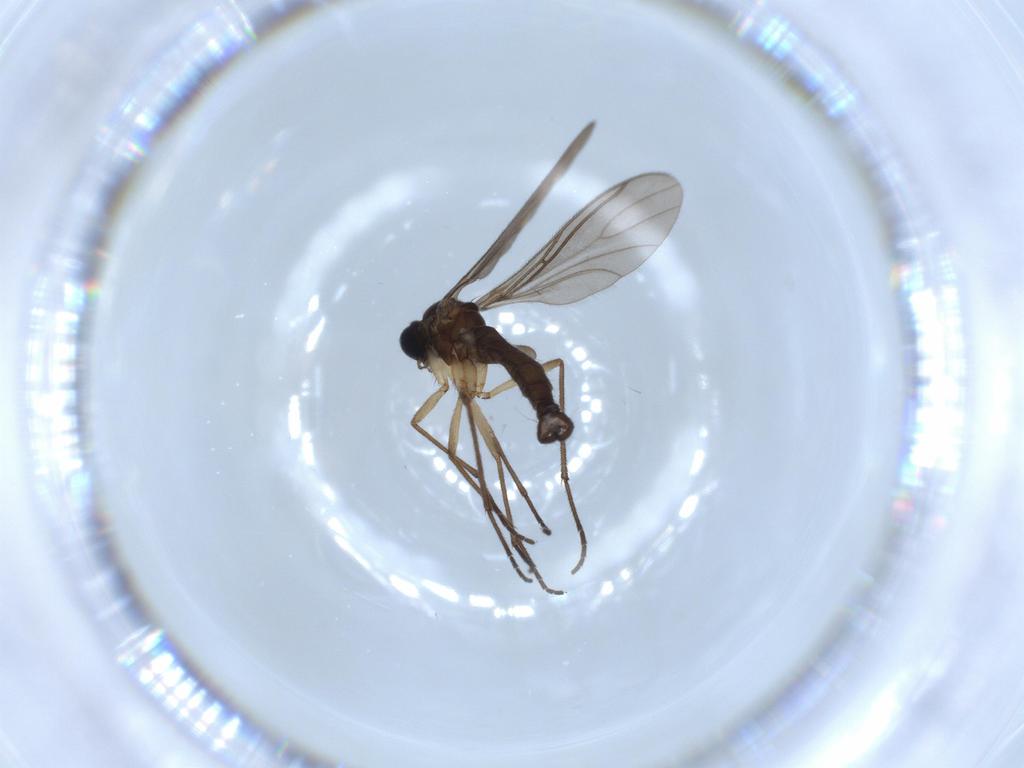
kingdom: Animalia
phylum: Arthropoda
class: Insecta
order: Diptera
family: Sciaridae
